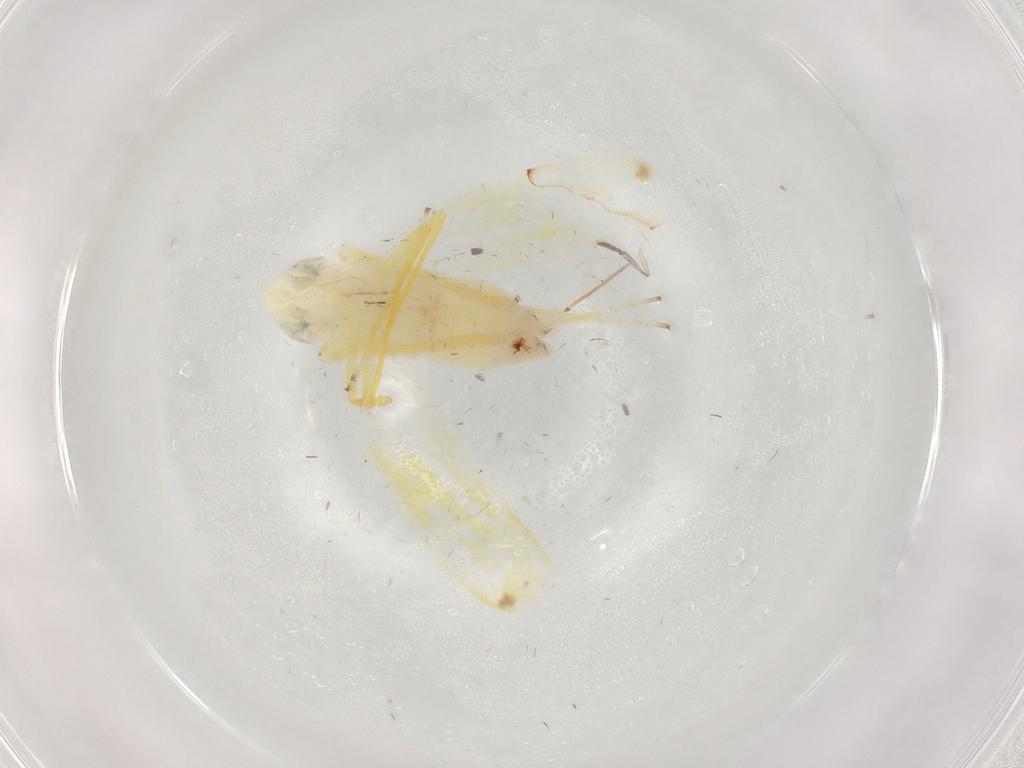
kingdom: Animalia
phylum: Arthropoda
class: Insecta
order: Hemiptera
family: Cicadellidae
